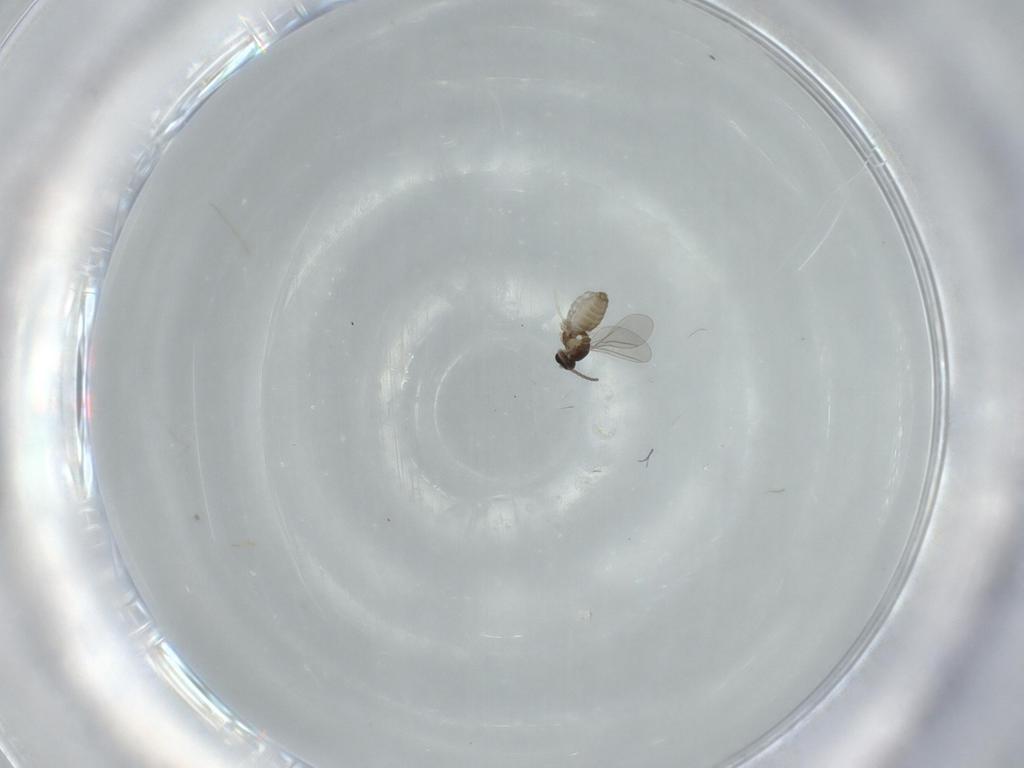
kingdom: Animalia
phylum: Arthropoda
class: Insecta
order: Diptera
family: Cecidomyiidae
